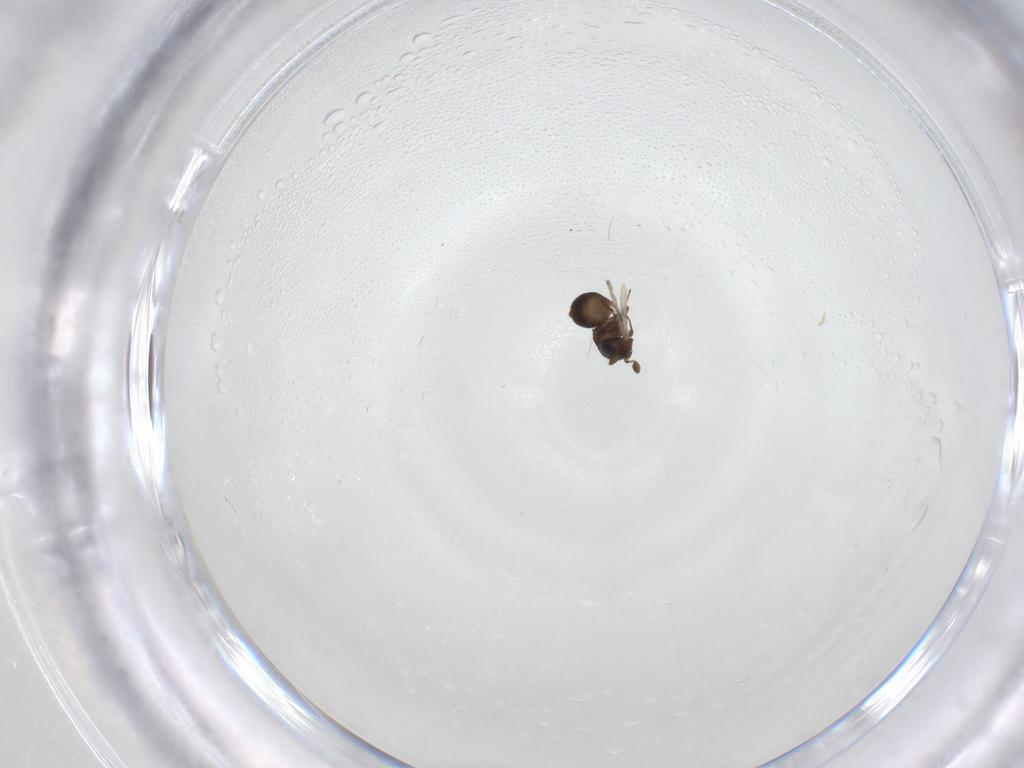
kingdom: Animalia
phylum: Arthropoda
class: Insecta
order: Hymenoptera
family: Scelionidae
